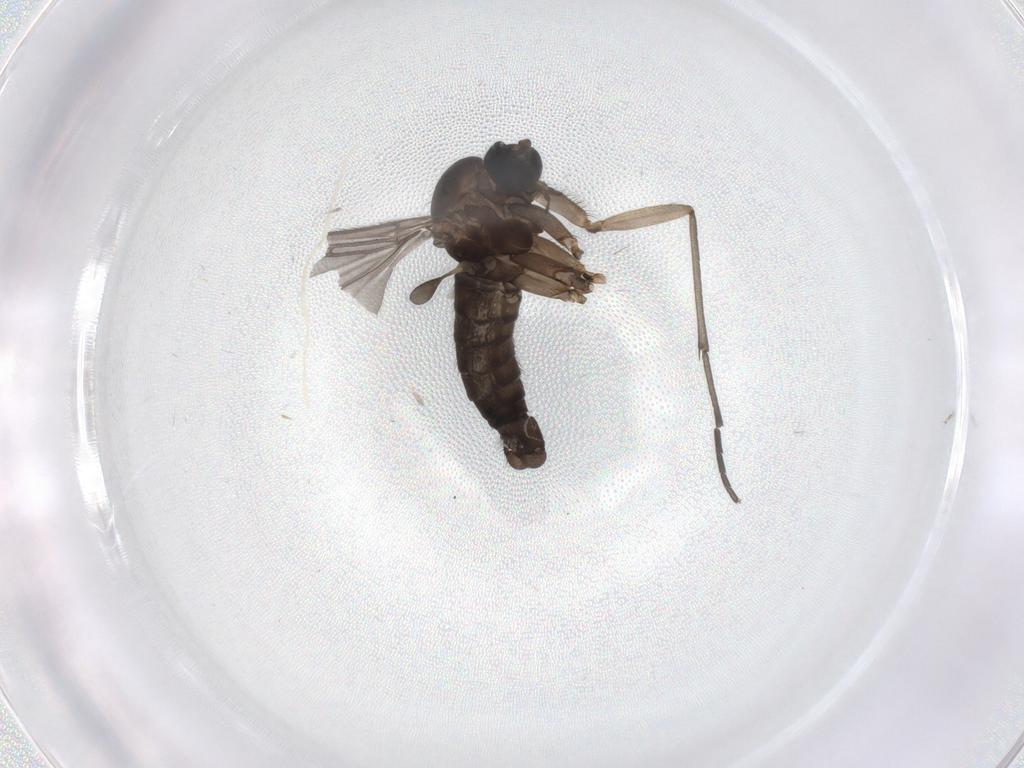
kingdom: Animalia
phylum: Arthropoda
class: Insecta
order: Diptera
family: Sciaridae
